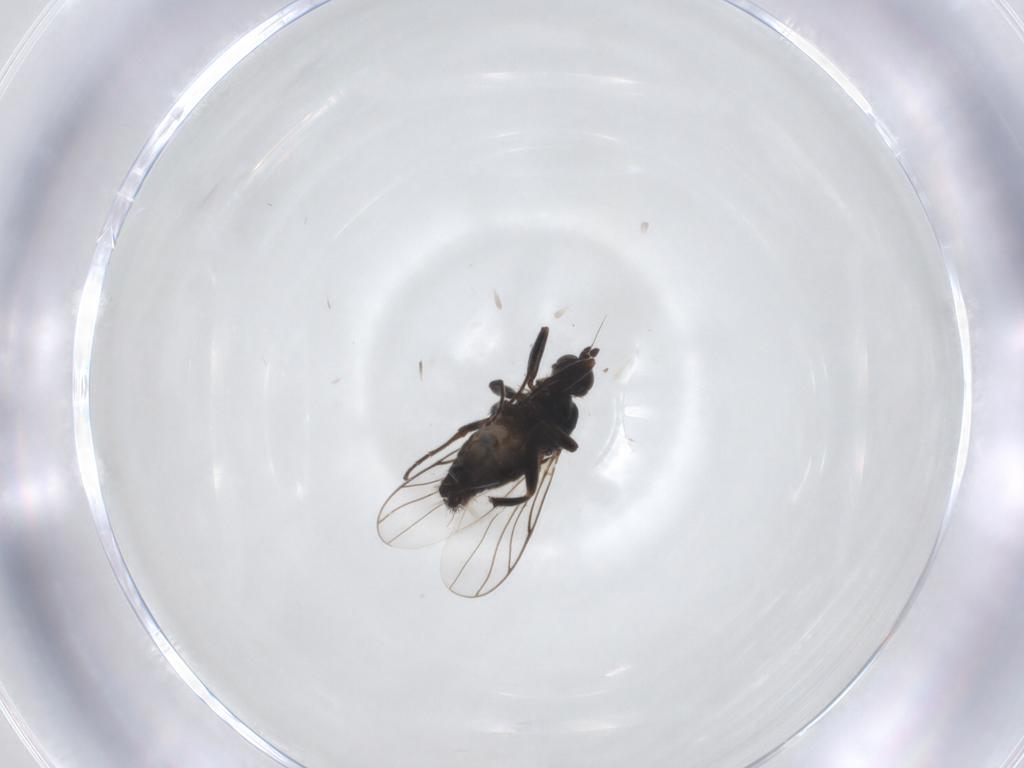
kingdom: Animalia
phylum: Arthropoda
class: Insecta
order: Diptera
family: Hybotidae
